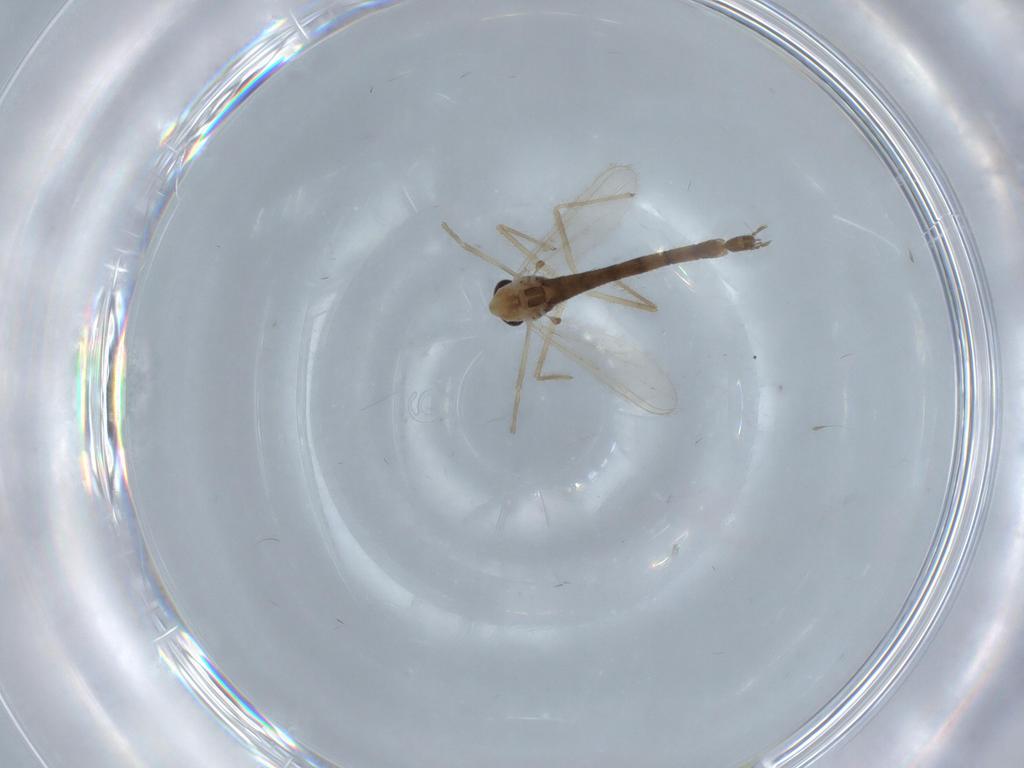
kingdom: Animalia
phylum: Arthropoda
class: Insecta
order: Diptera
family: Chironomidae
